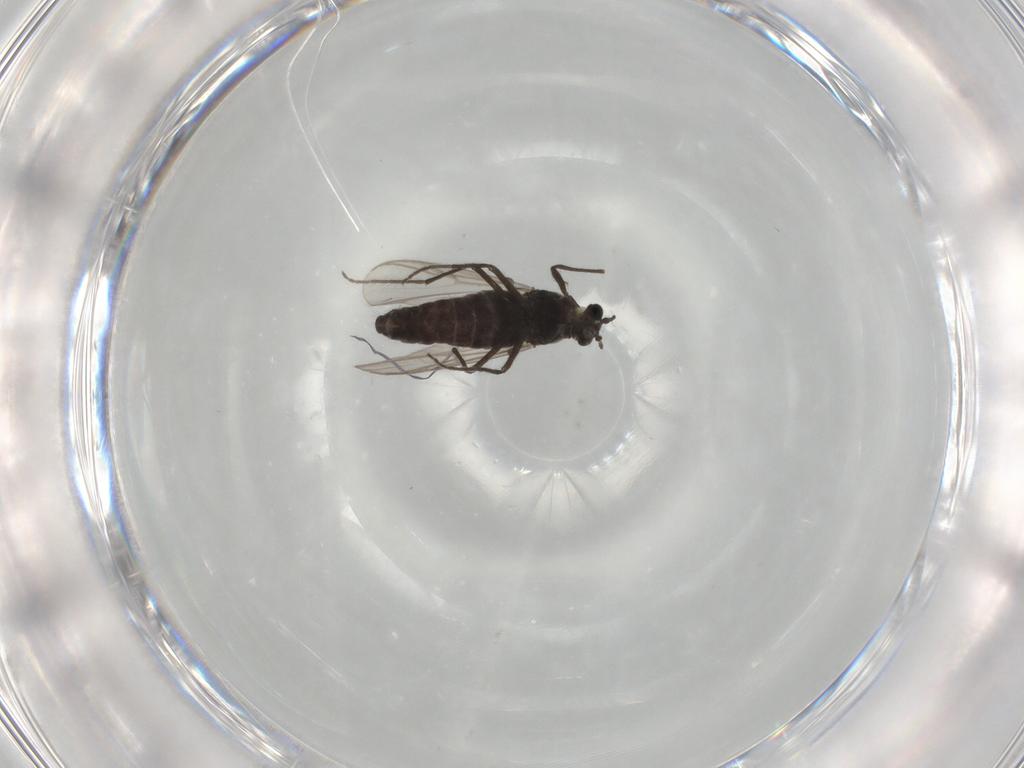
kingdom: Animalia
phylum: Arthropoda
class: Insecta
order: Diptera
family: Chironomidae
